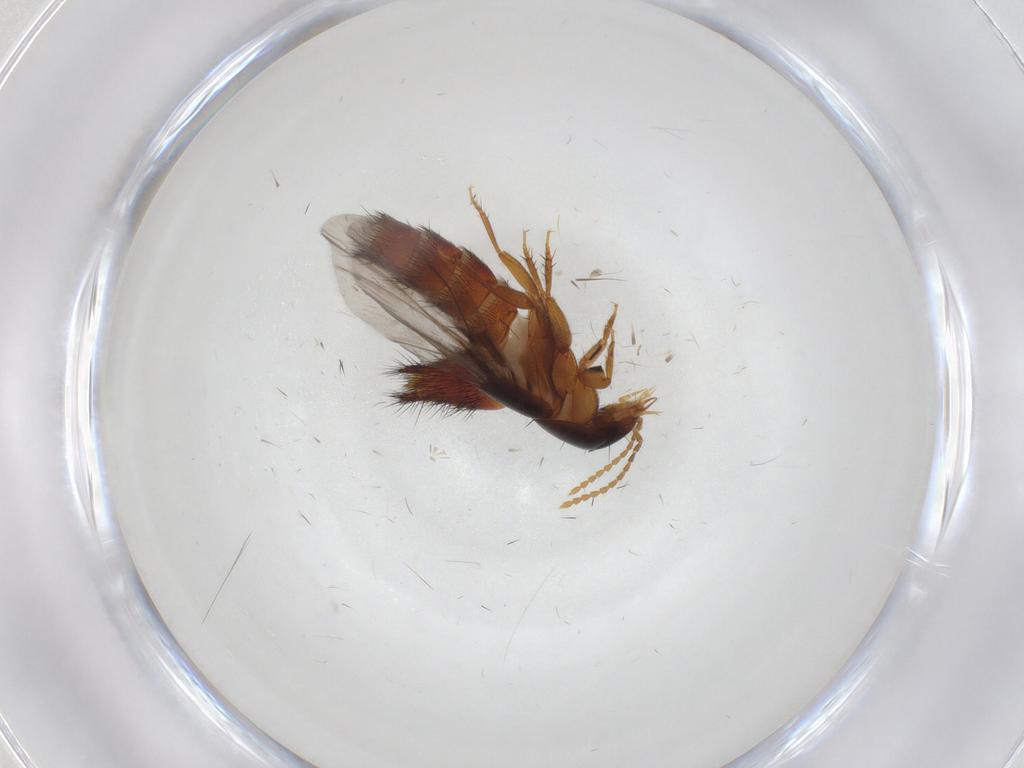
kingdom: Animalia
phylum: Arthropoda
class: Insecta
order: Coleoptera
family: Staphylinidae
